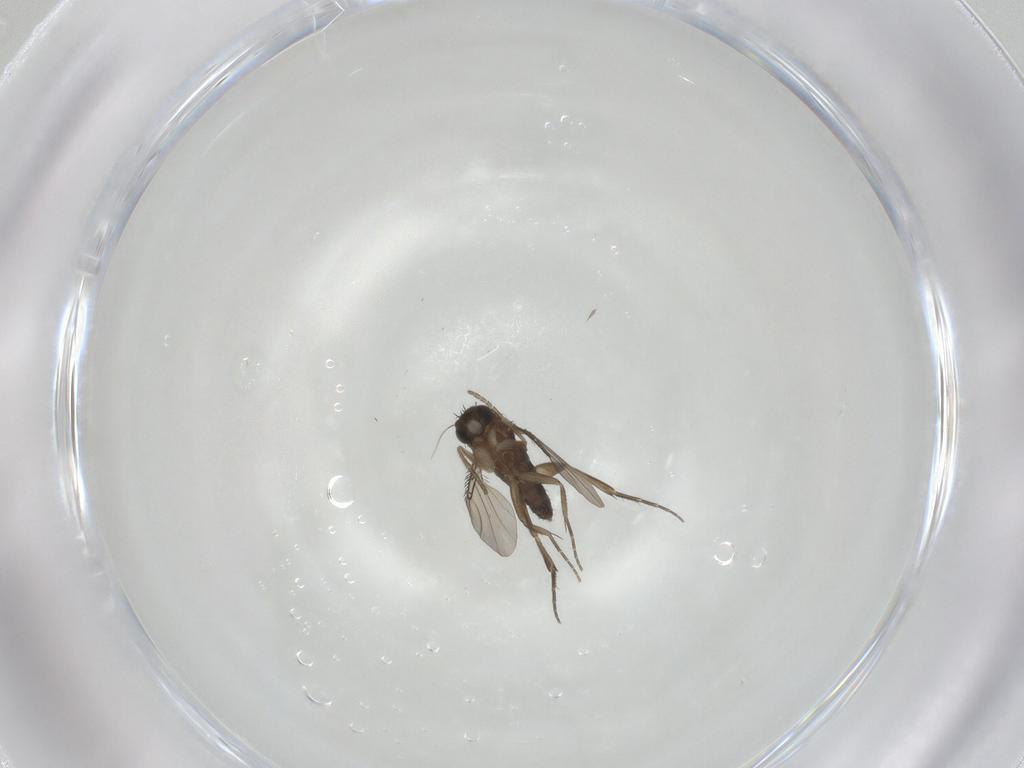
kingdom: Animalia
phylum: Arthropoda
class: Insecta
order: Diptera
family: Phoridae
